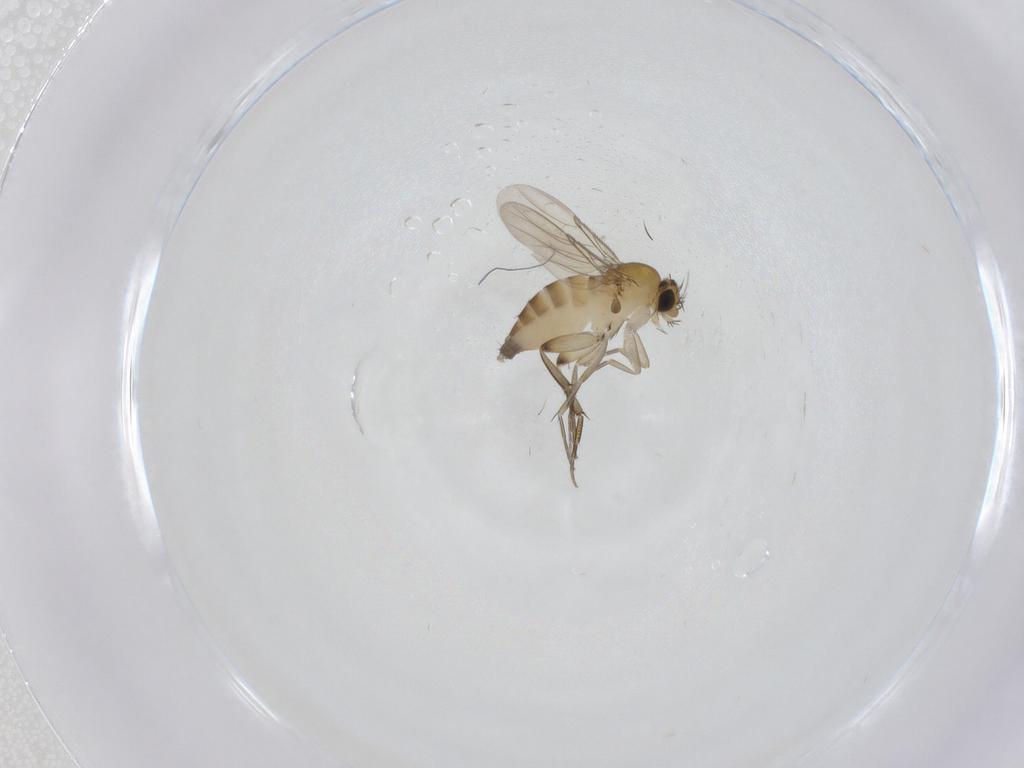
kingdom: Animalia
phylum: Arthropoda
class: Insecta
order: Diptera
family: Phoridae
